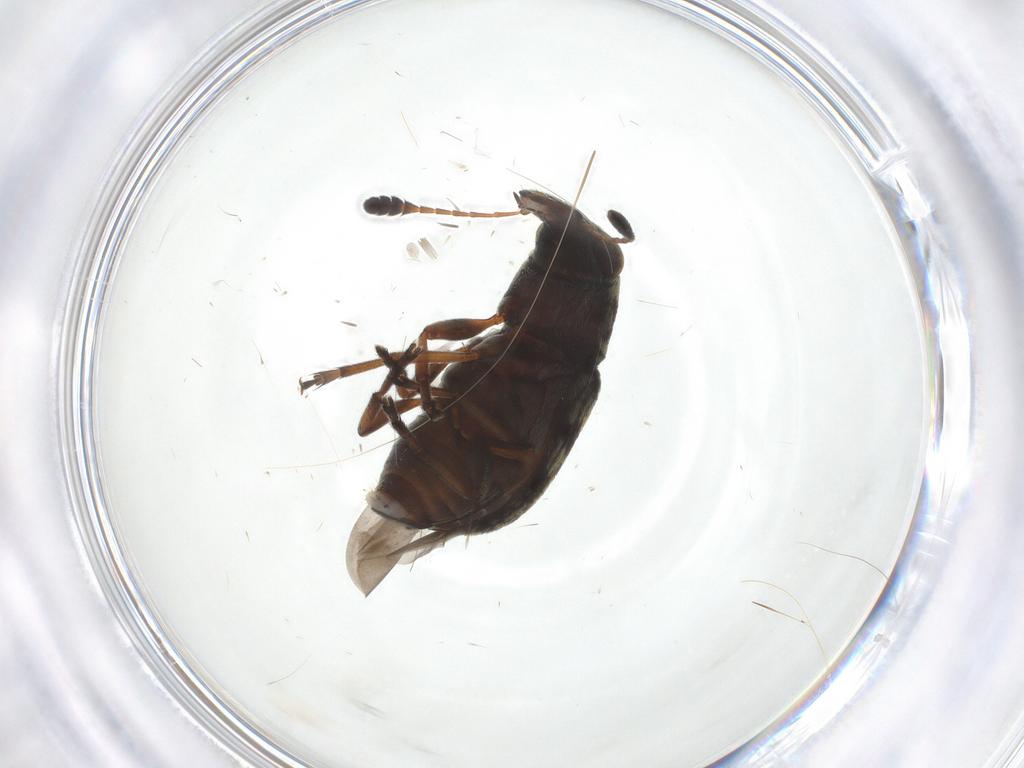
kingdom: Animalia
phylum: Arthropoda
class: Insecta
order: Coleoptera
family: Anthribidae
